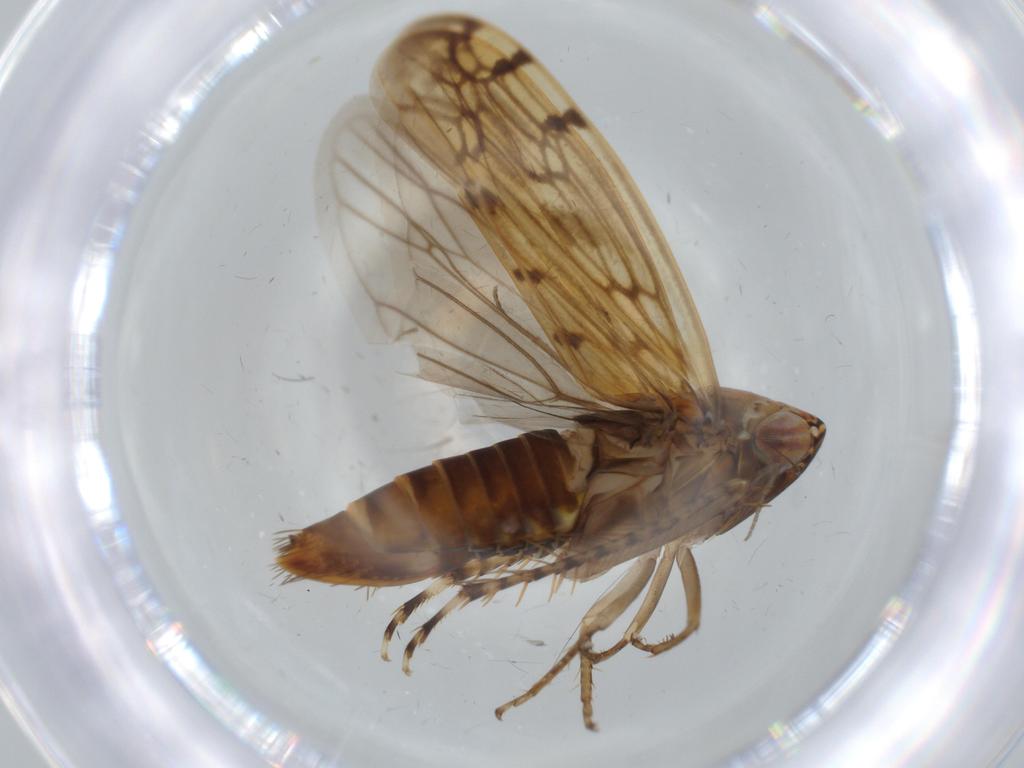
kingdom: Animalia
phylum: Arthropoda
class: Insecta
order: Hemiptera
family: Cicadellidae
